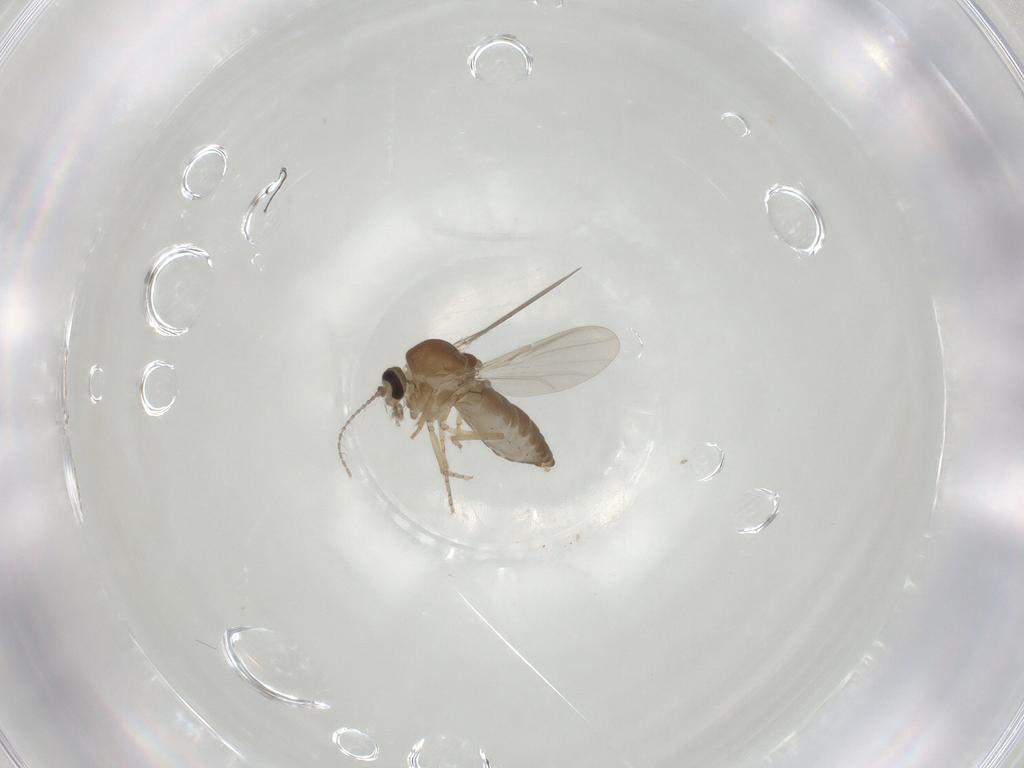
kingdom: Animalia
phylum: Arthropoda
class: Insecta
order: Diptera
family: Ceratopogonidae
